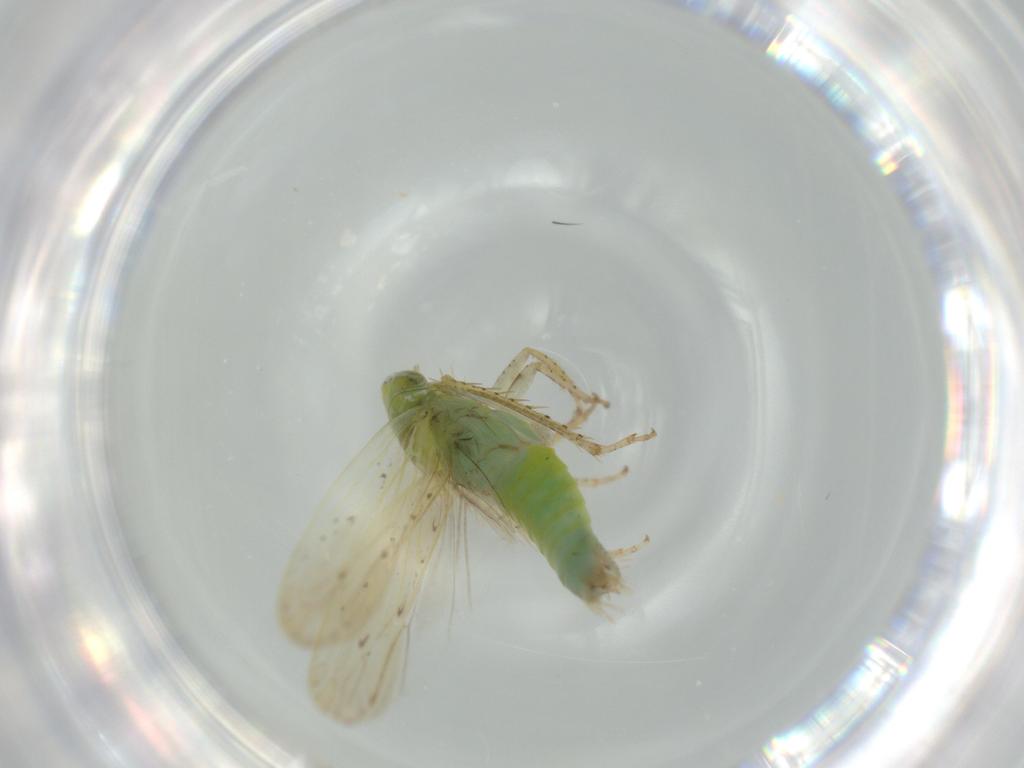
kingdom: Animalia
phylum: Arthropoda
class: Insecta
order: Hemiptera
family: Cicadellidae
